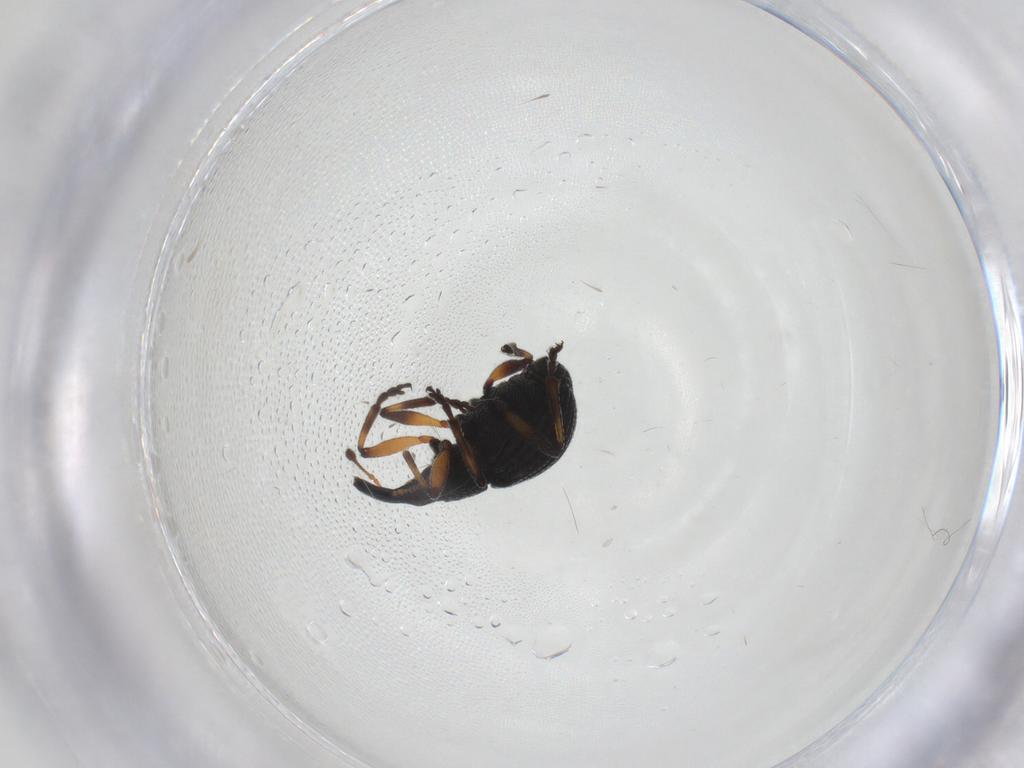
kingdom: Animalia
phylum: Arthropoda
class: Insecta
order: Coleoptera
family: Brentidae
